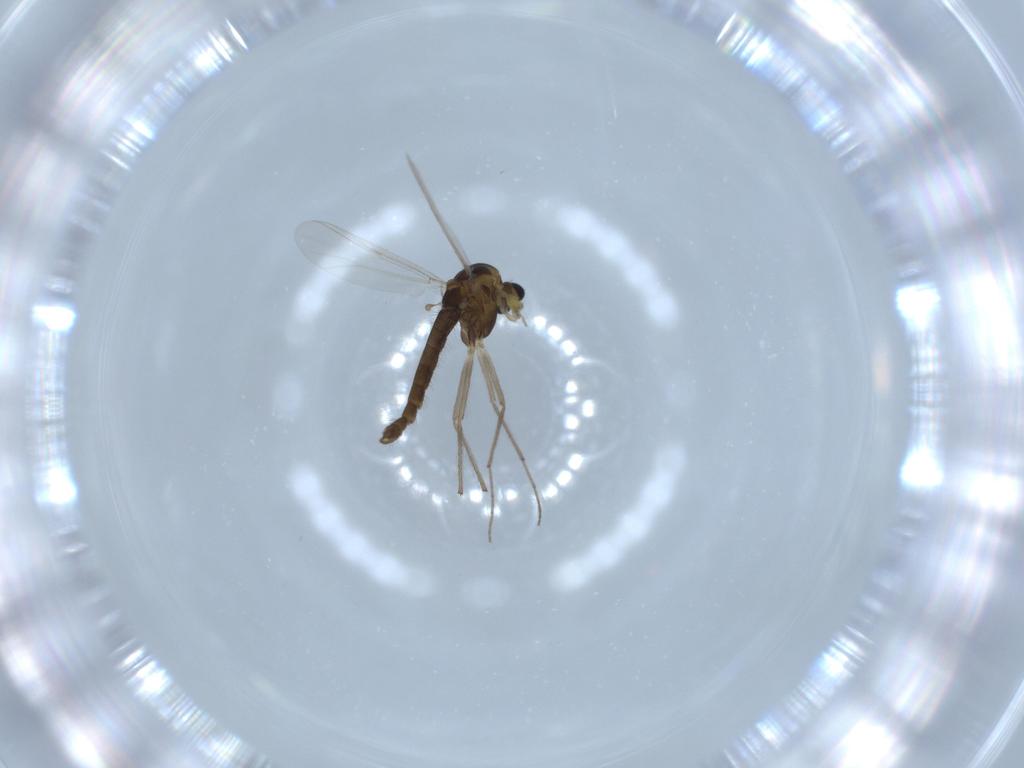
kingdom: Animalia
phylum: Arthropoda
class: Insecta
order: Diptera
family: Chironomidae
